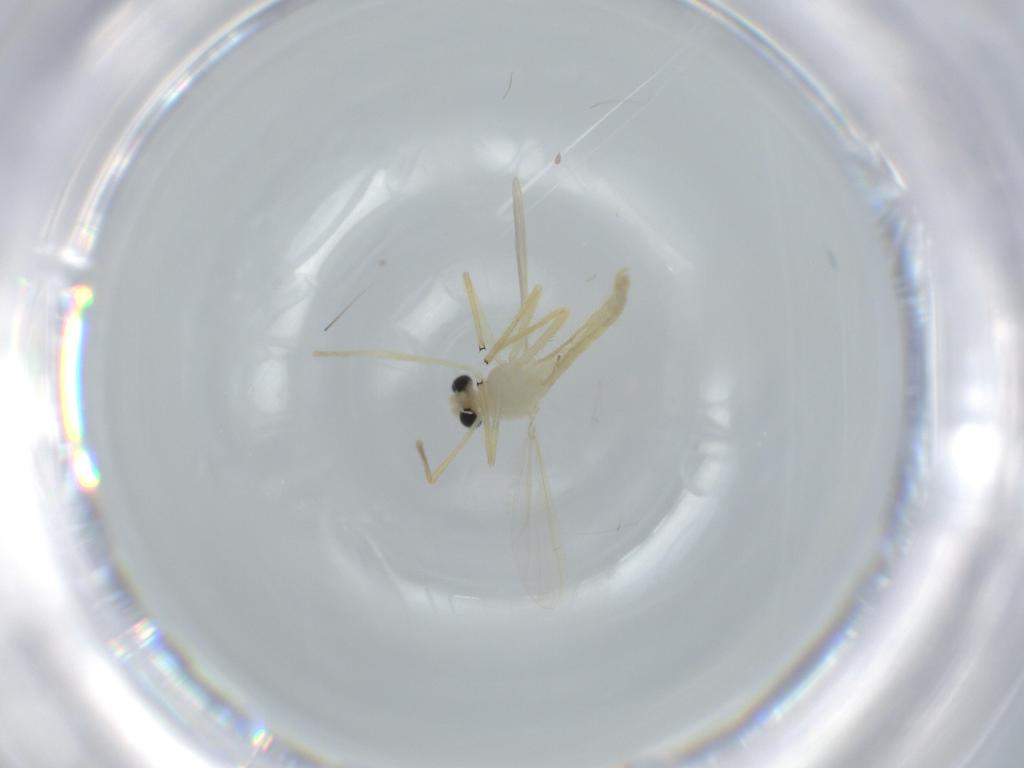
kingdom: Animalia
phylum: Arthropoda
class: Insecta
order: Diptera
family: Chironomidae
